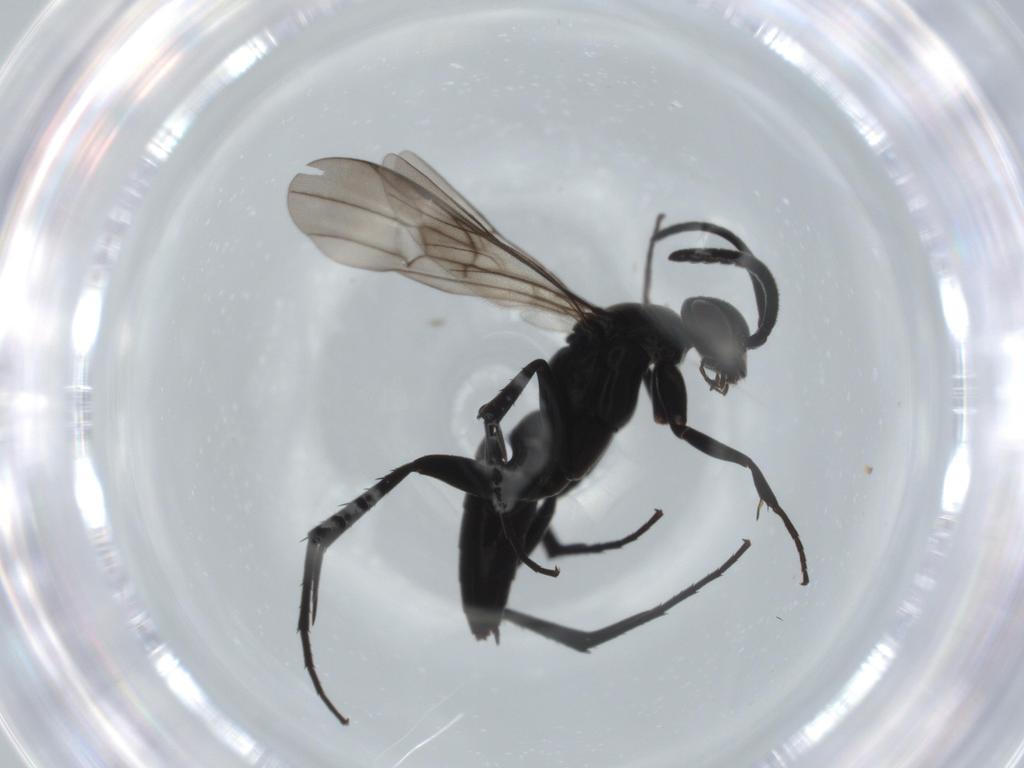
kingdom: Animalia
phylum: Arthropoda
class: Insecta
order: Hymenoptera
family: Pompilidae
